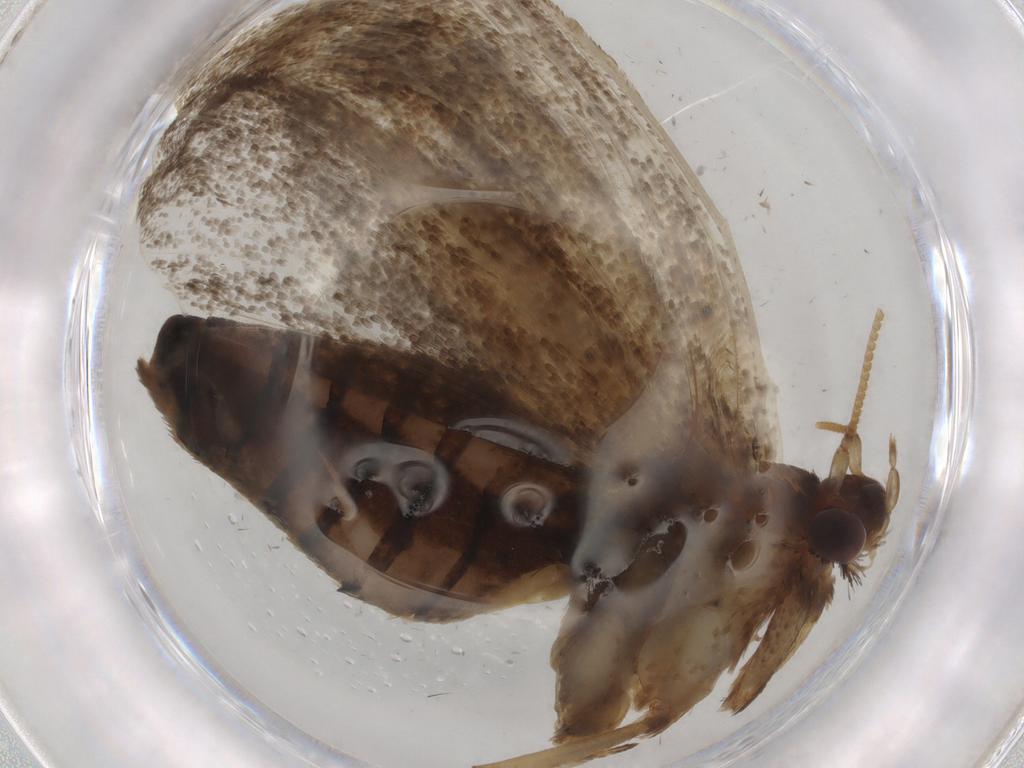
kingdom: Animalia
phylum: Arthropoda
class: Insecta
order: Lepidoptera
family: Tineidae
